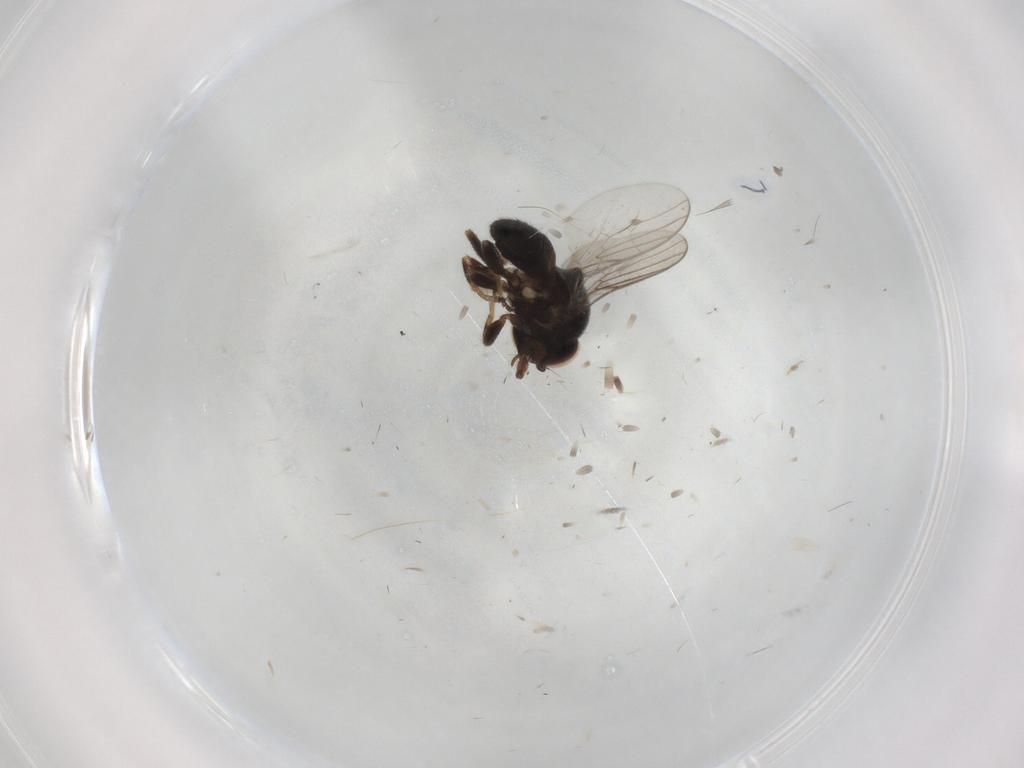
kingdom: Animalia
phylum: Arthropoda
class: Insecta
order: Diptera
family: Chloropidae
